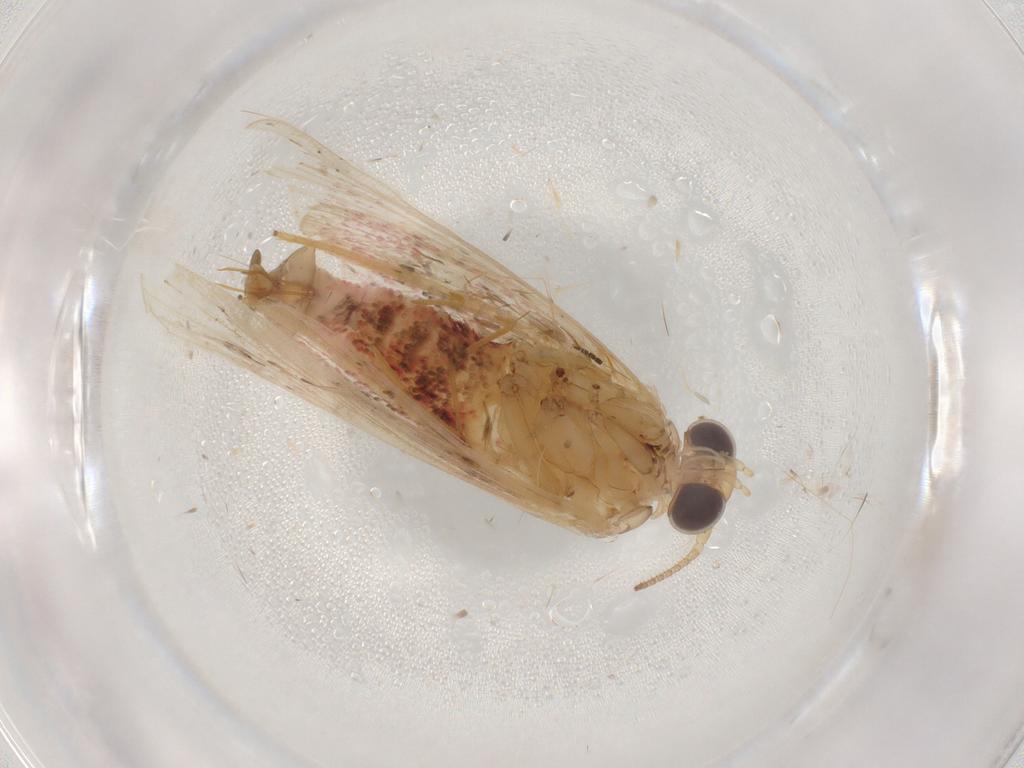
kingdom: Animalia
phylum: Arthropoda
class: Insecta
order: Lepidoptera
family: Pyralidae
